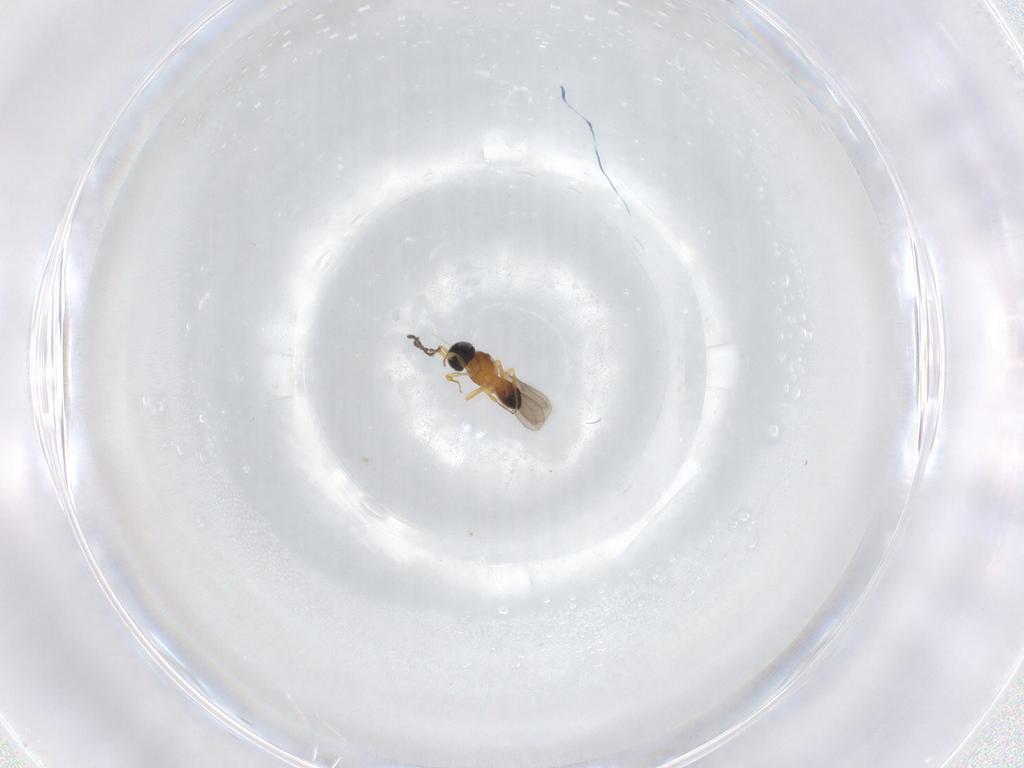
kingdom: Animalia
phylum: Arthropoda
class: Insecta
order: Hymenoptera
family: Scelionidae
